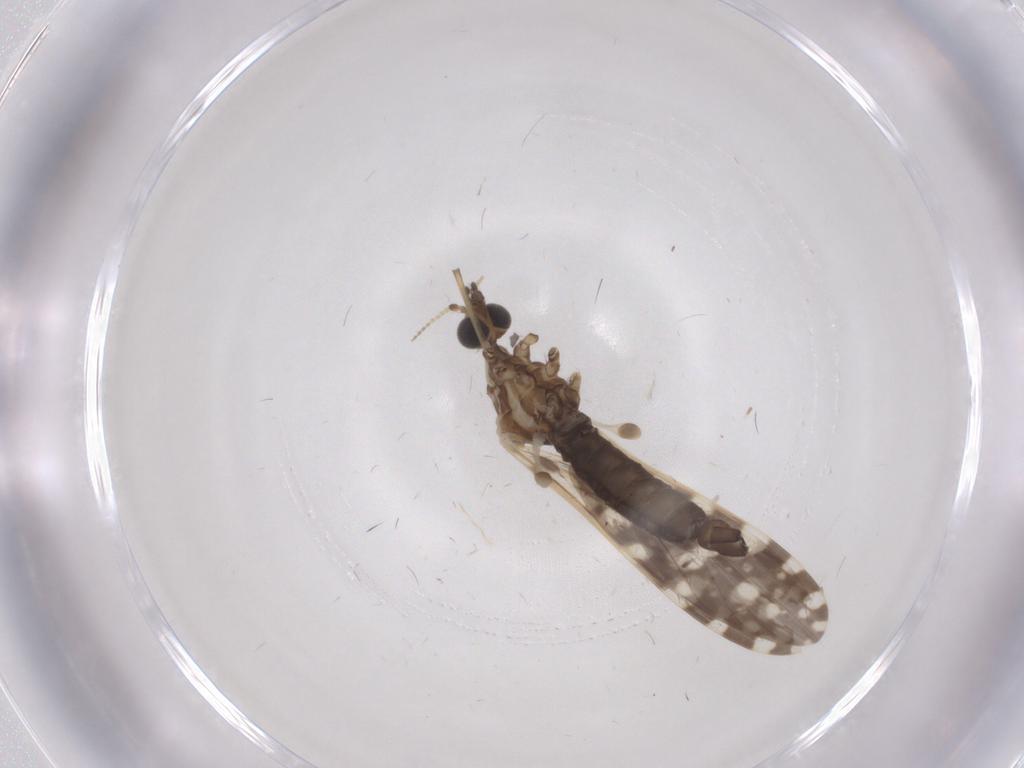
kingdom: Animalia
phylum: Arthropoda
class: Insecta
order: Diptera
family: Limoniidae
